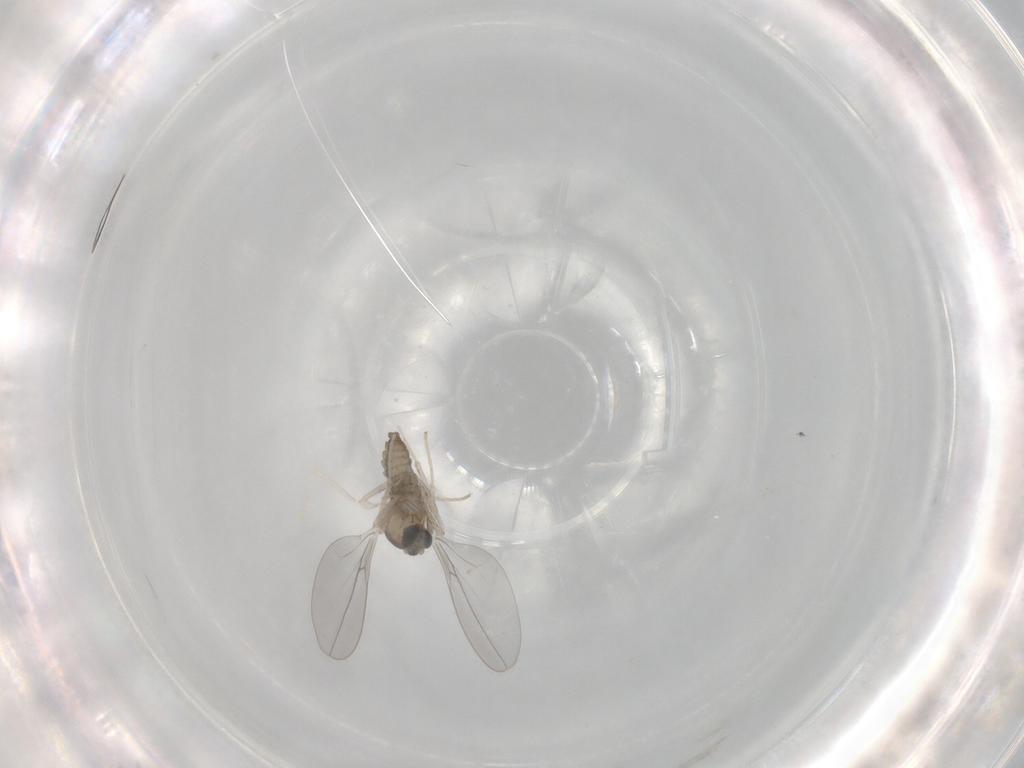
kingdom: Animalia
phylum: Arthropoda
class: Insecta
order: Diptera
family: Cecidomyiidae
